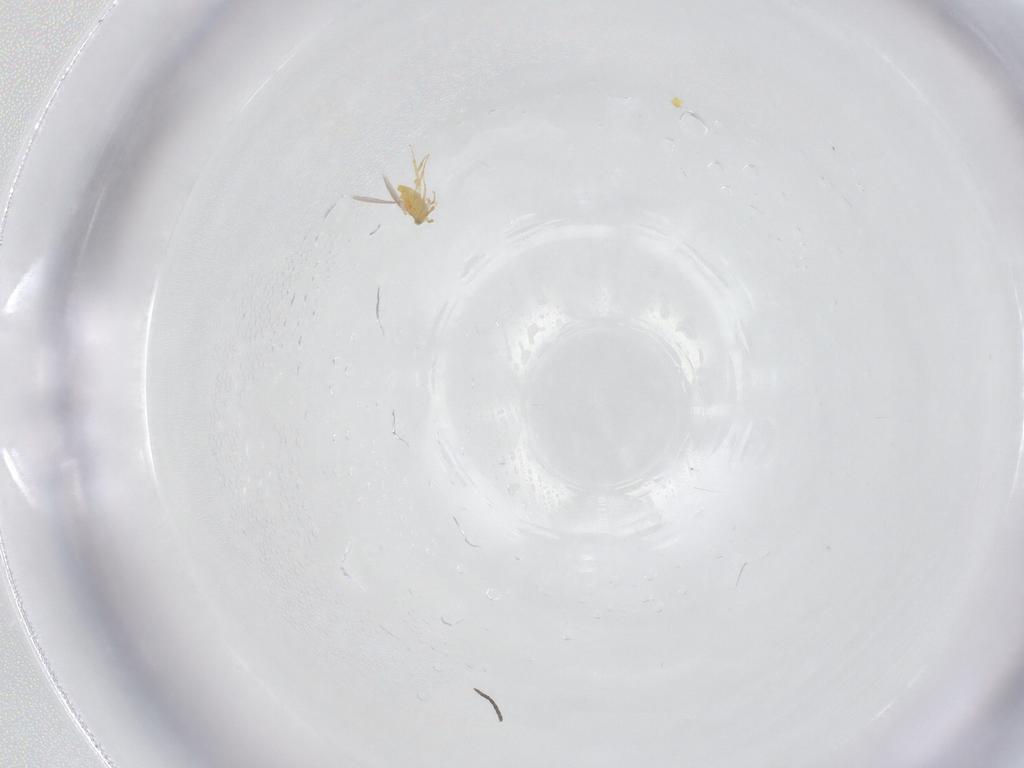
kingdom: Animalia
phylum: Arthropoda
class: Insecta
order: Hymenoptera
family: Aphelinidae
